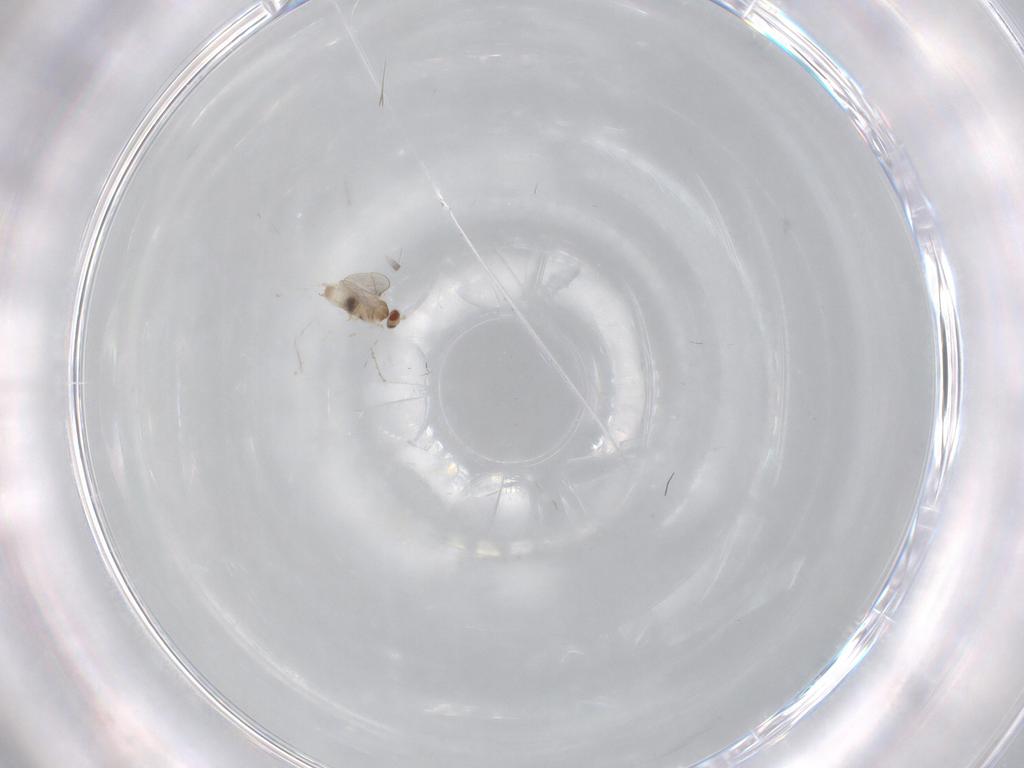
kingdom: Animalia
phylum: Arthropoda
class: Insecta
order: Diptera
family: Cecidomyiidae
